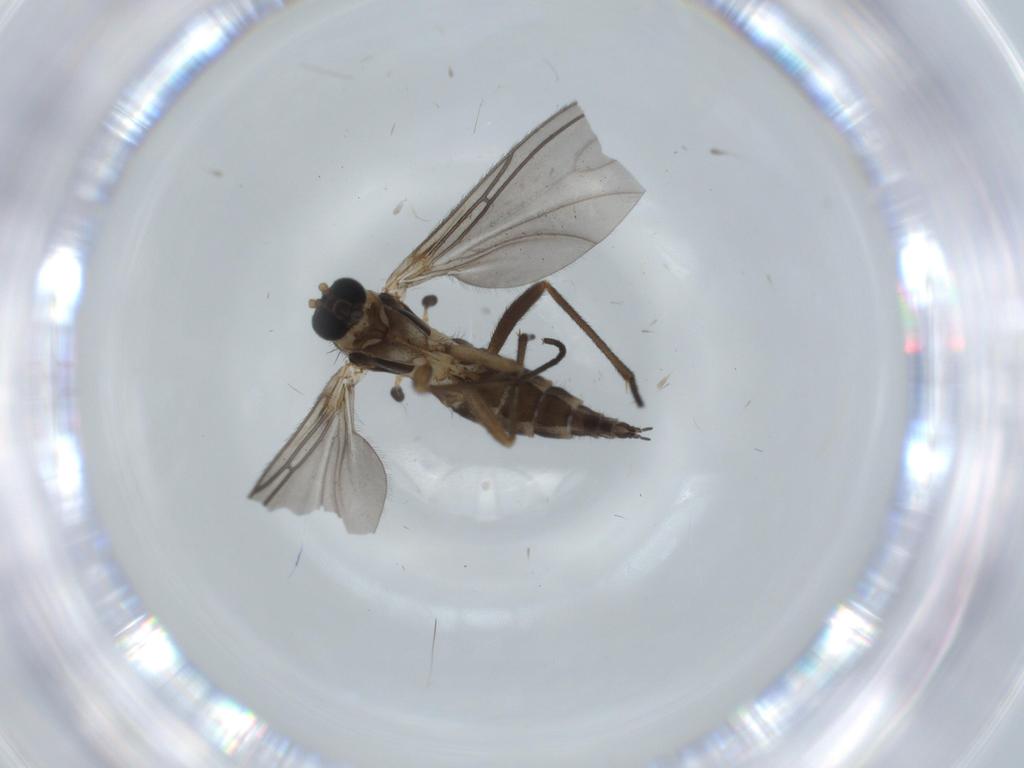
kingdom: Animalia
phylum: Arthropoda
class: Insecta
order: Diptera
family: Sciaridae
